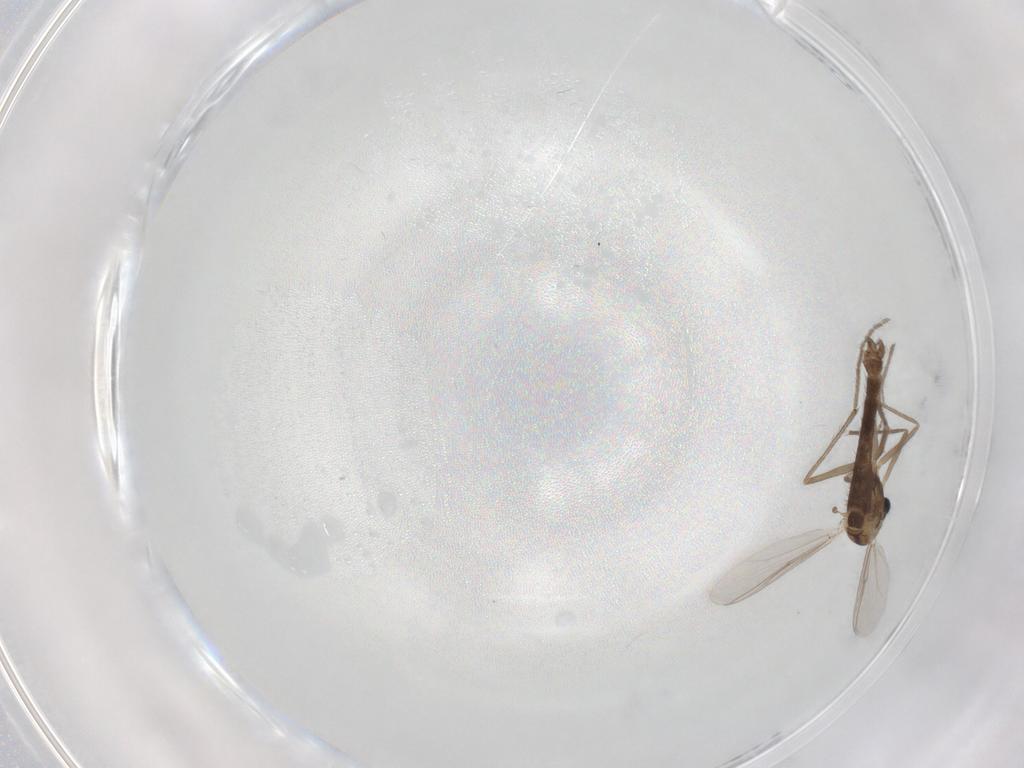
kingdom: Animalia
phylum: Arthropoda
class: Insecta
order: Diptera
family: Chironomidae
